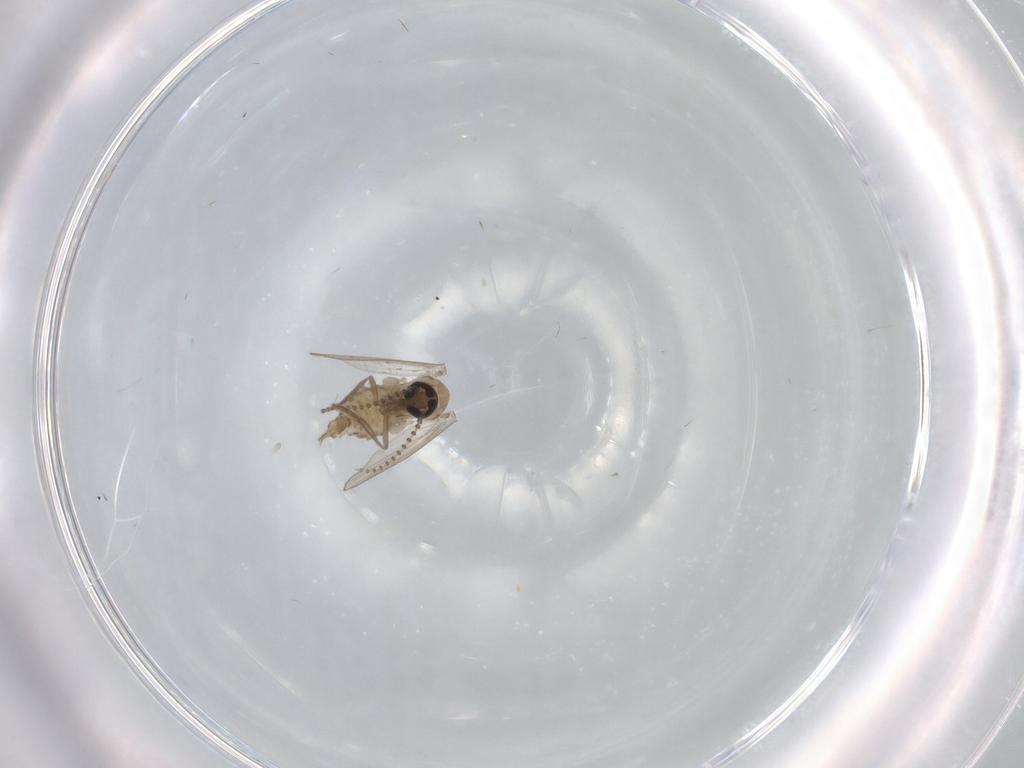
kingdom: Animalia
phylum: Arthropoda
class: Insecta
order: Diptera
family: Psychodidae
